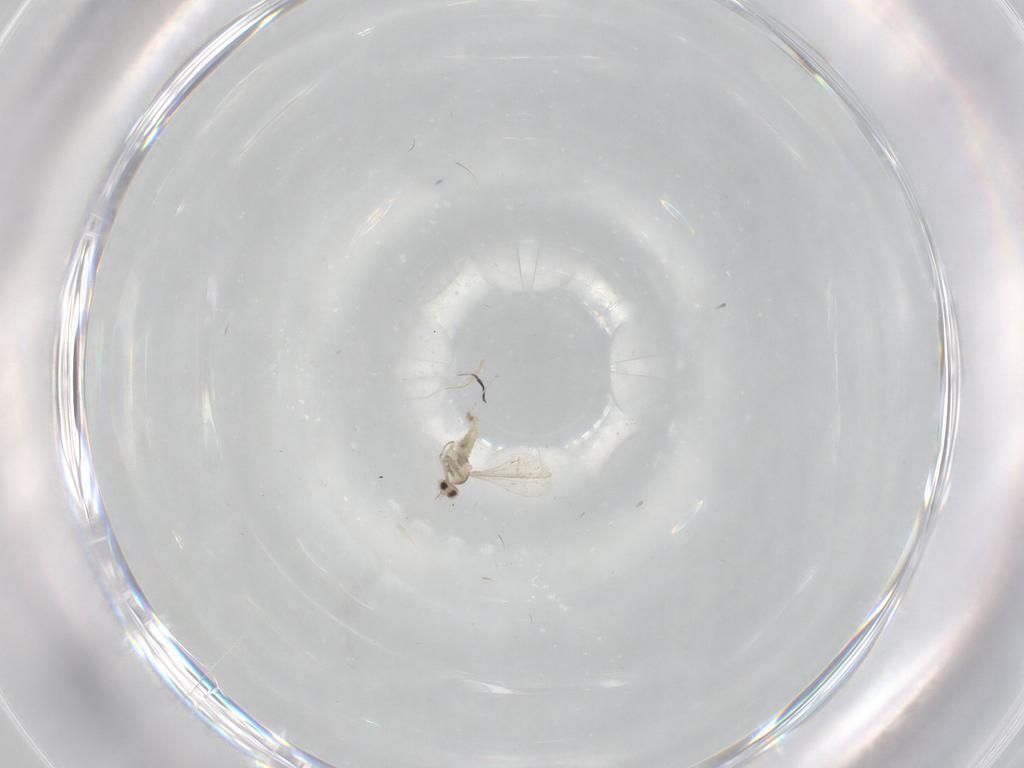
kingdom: Animalia
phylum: Arthropoda
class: Insecta
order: Diptera
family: Cecidomyiidae
